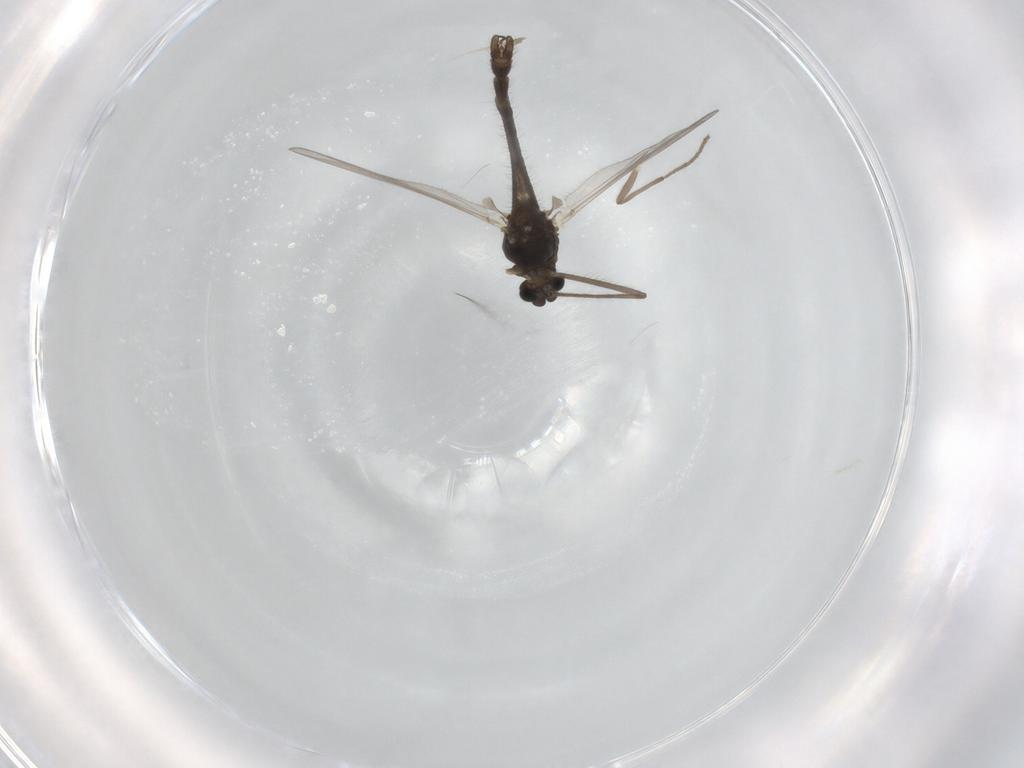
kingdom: Animalia
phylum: Arthropoda
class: Insecta
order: Diptera
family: Chironomidae
